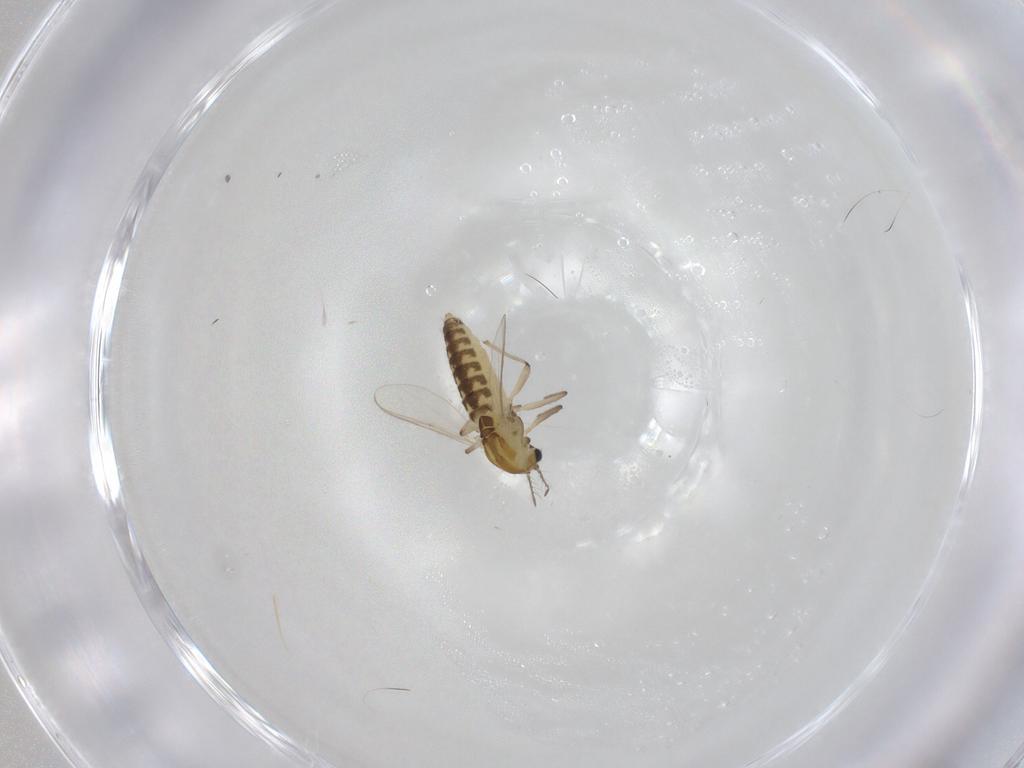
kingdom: Animalia
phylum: Arthropoda
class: Insecta
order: Diptera
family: Chironomidae
